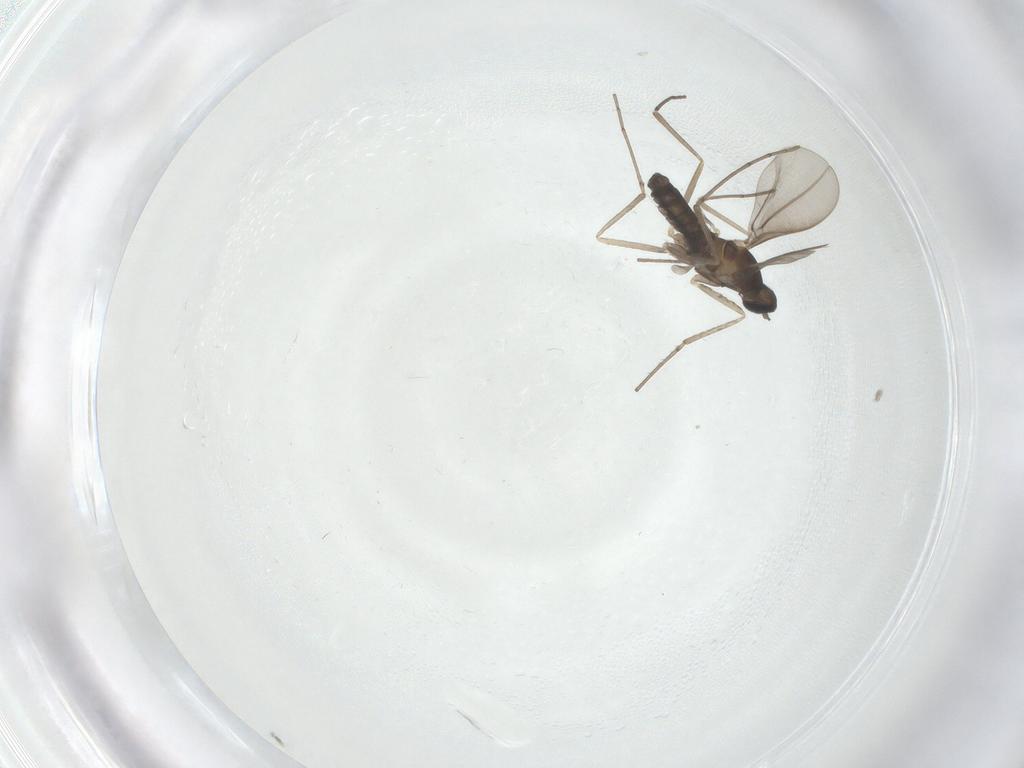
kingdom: Animalia
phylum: Arthropoda
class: Insecta
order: Diptera
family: Cecidomyiidae
